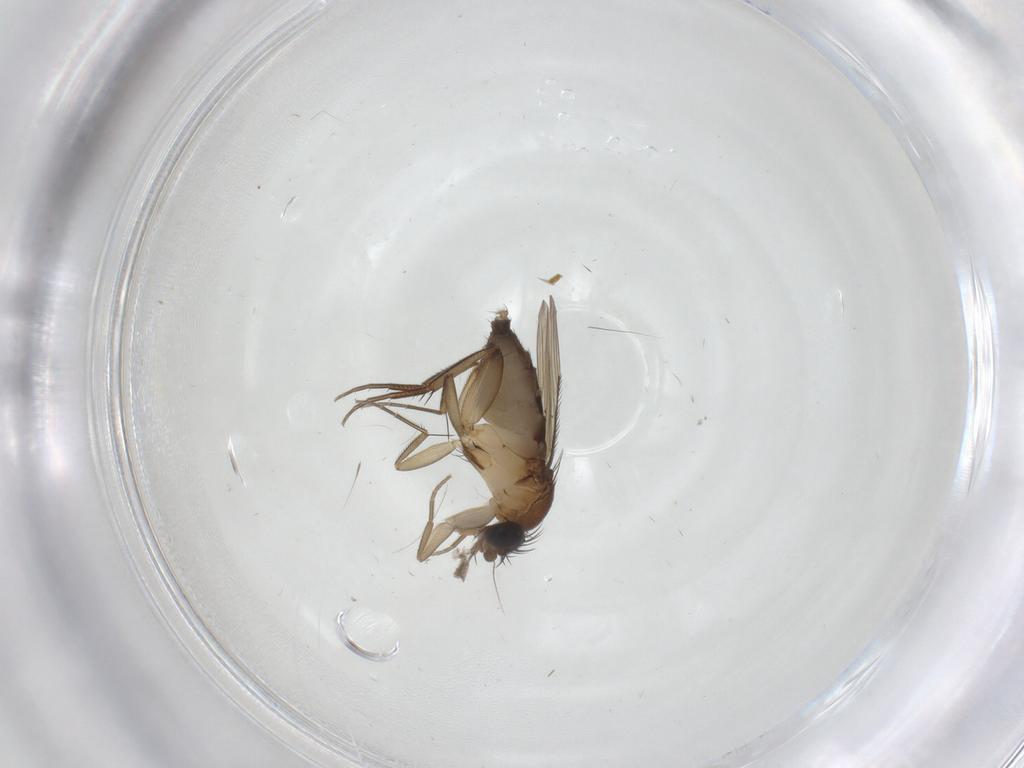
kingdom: Animalia
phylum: Arthropoda
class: Insecta
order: Diptera
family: Phoridae
